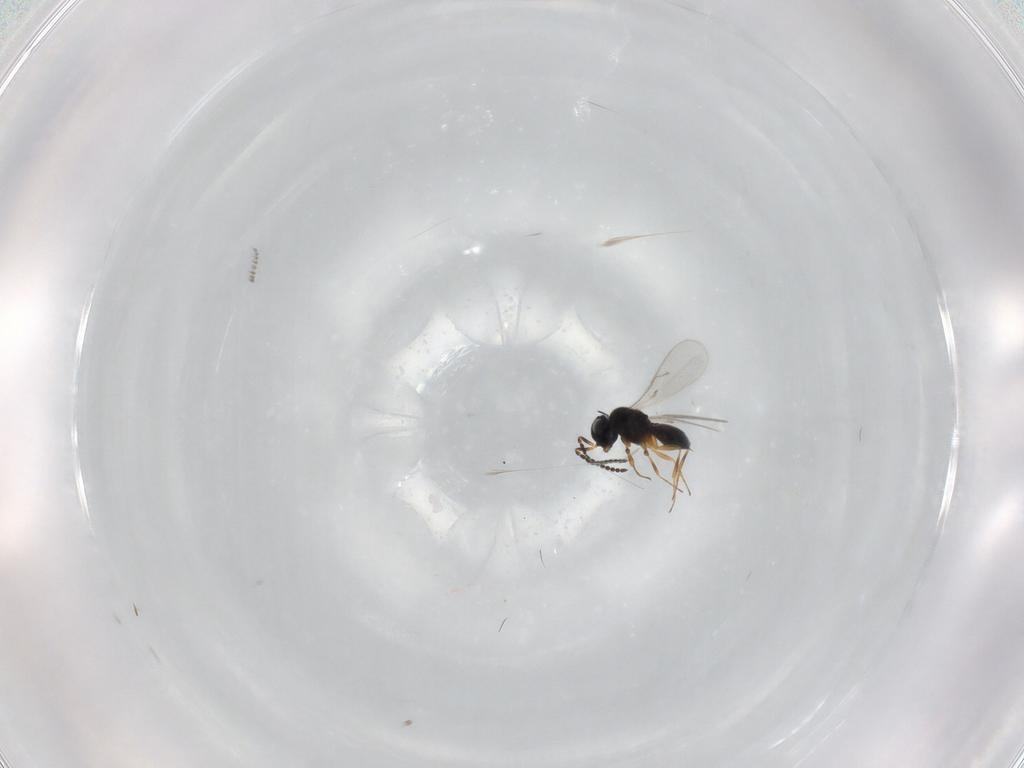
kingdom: Animalia
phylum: Arthropoda
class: Insecta
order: Hymenoptera
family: Scelionidae
